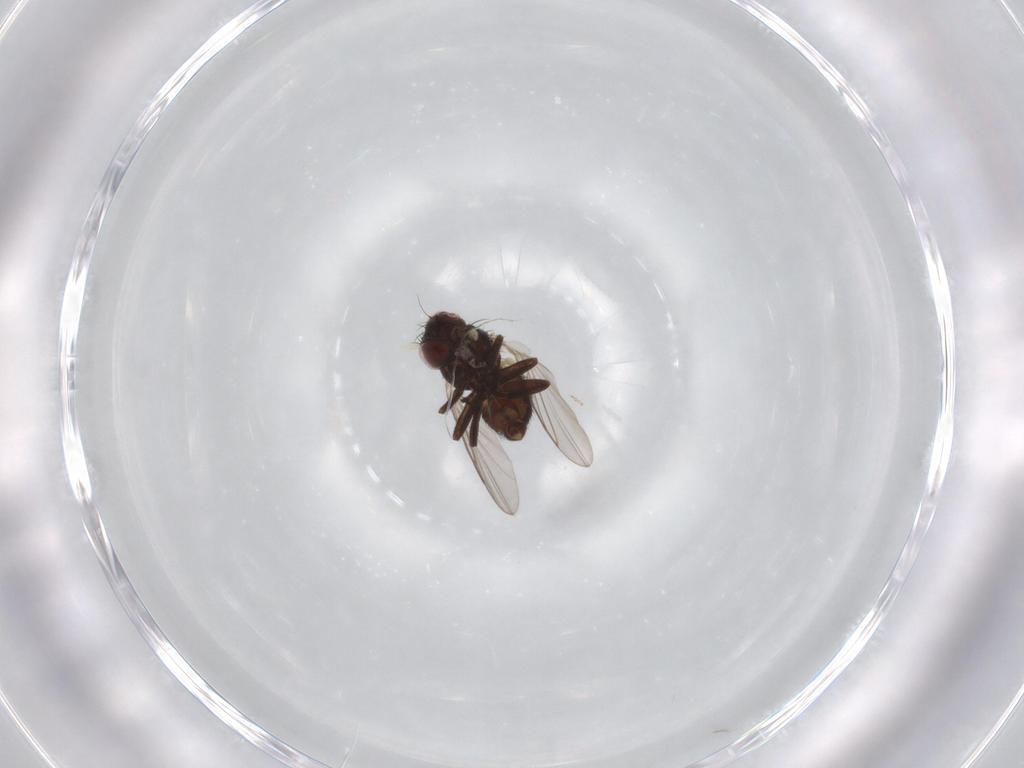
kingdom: Animalia
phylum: Arthropoda
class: Insecta
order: Diptera
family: Ceratopogonidae
